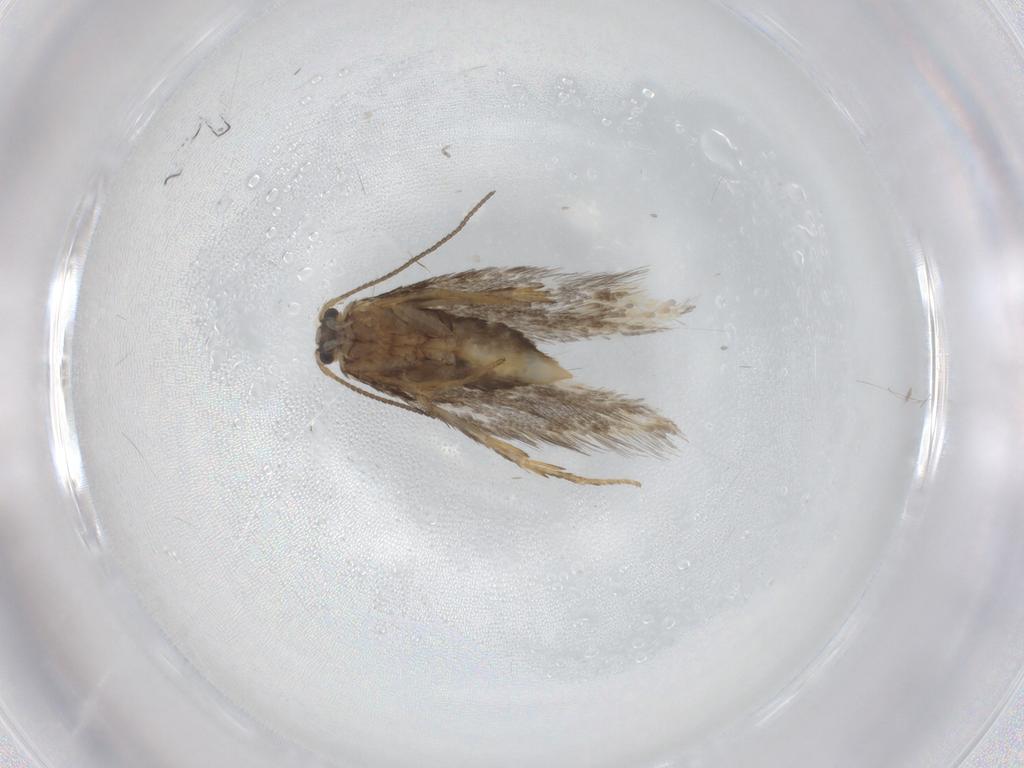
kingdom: Animalia
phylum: Arthropoda
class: Insecta
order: Lepidoptera
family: Nepticulidae
